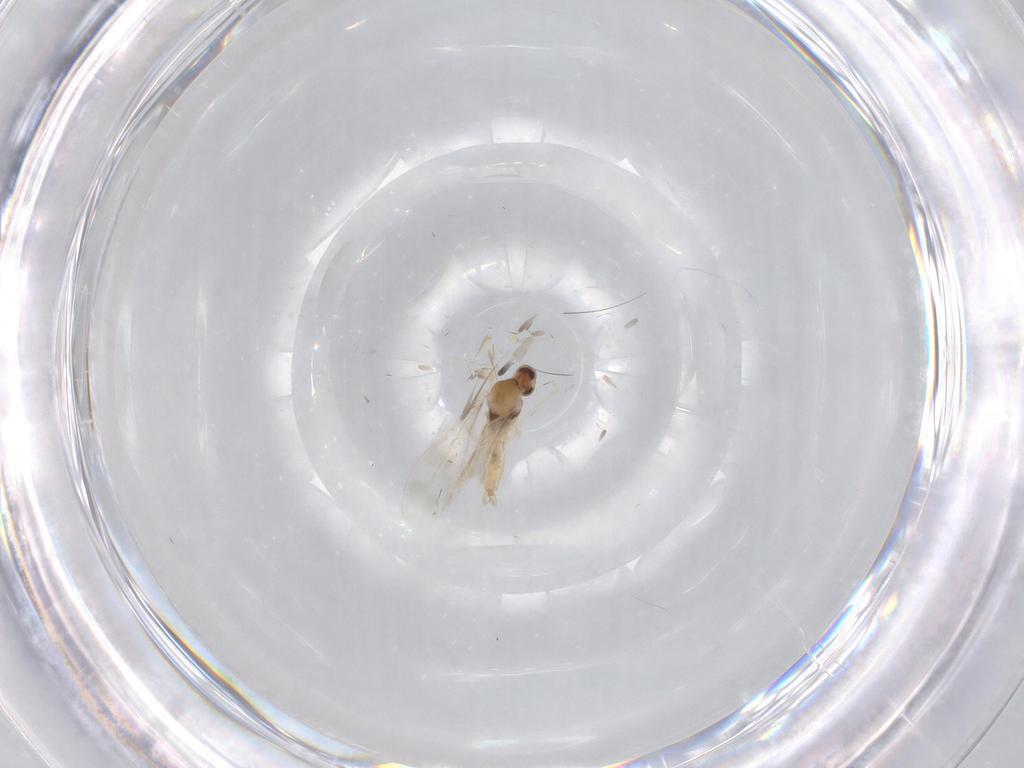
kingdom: Animalia
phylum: Arthropoda
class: Insecta
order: Diptera
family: Cecidomyiidae
